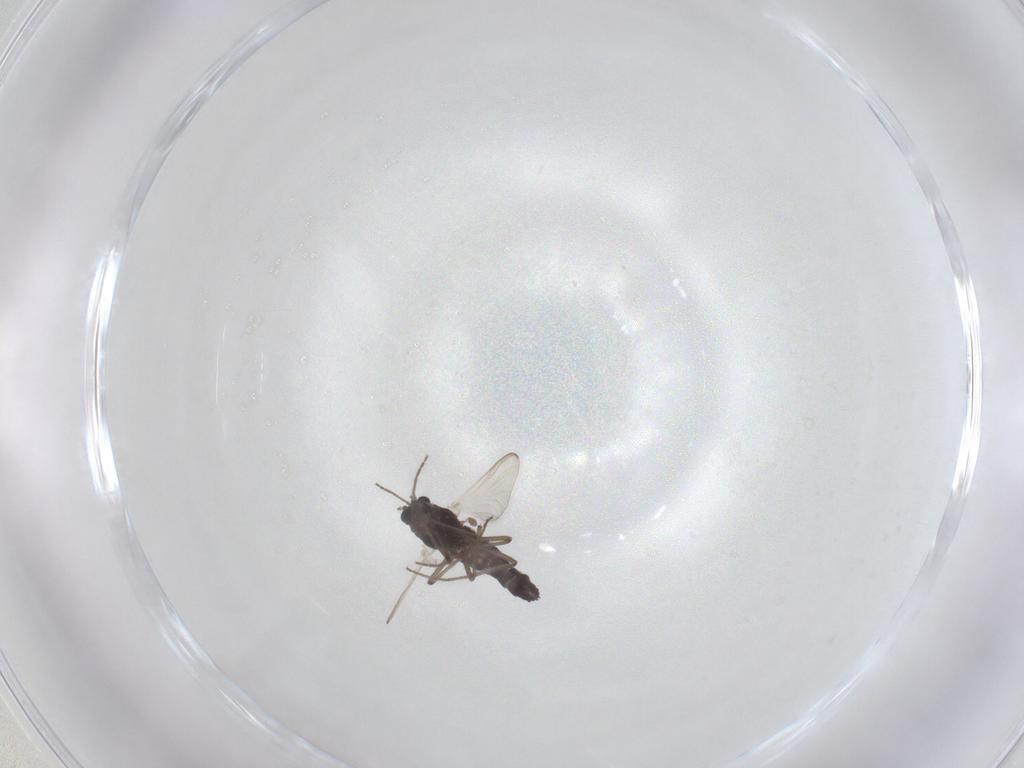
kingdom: Animalia
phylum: Arthropoda
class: Insecta
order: Diptera
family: Chironomidae
